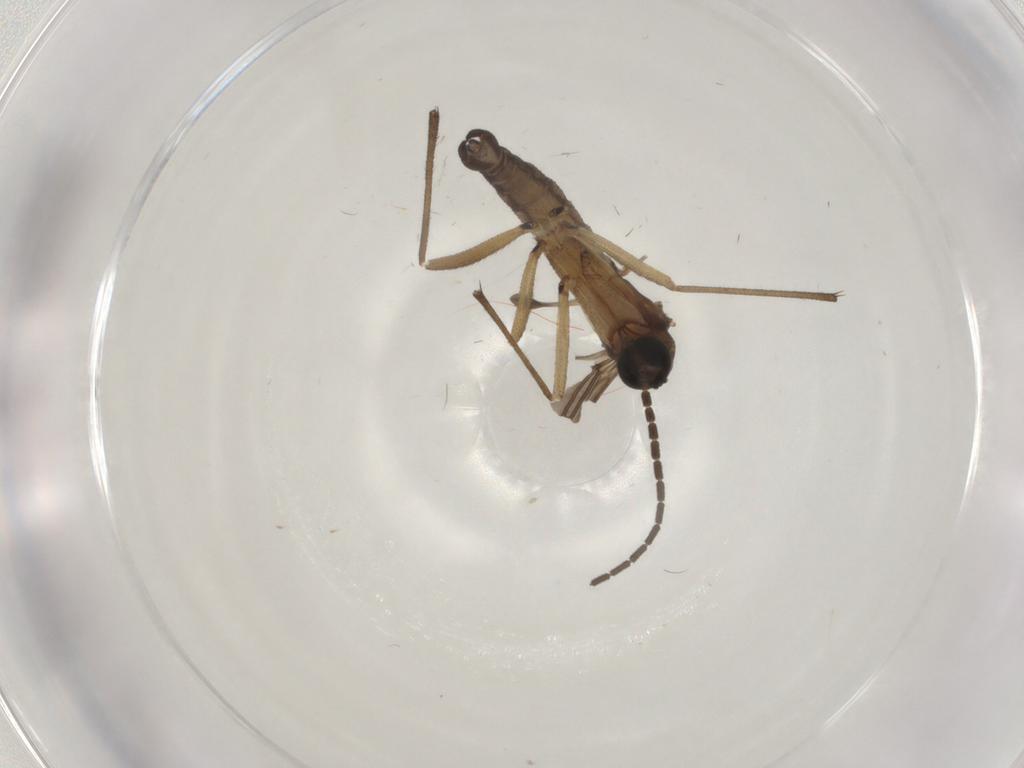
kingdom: Animalia
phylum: Arthropoda
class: Insecta
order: Diptera
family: Sciaridae
